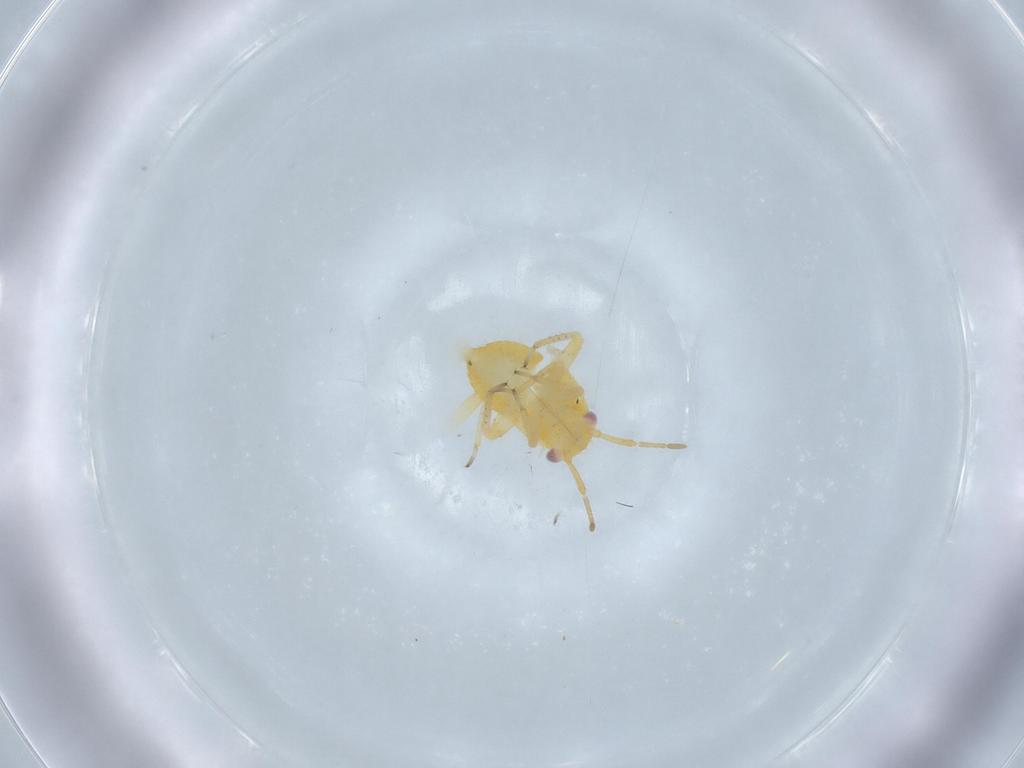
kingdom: Animalia
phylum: Arthropoda
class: Insecta
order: Hemiptera
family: Miridae
